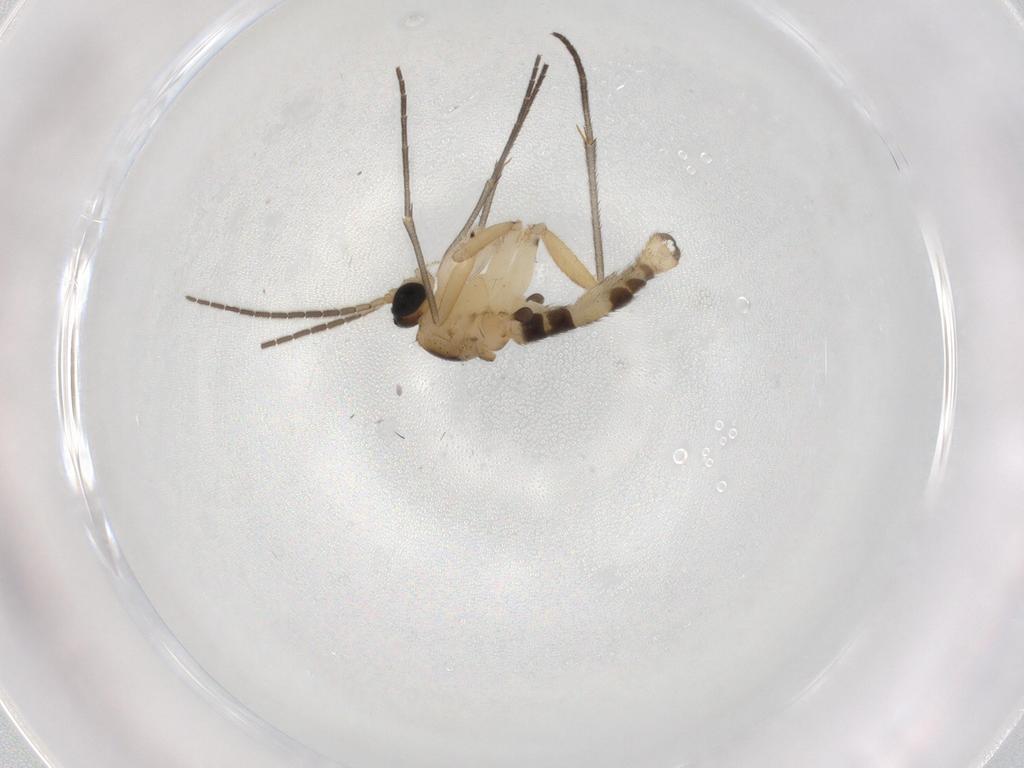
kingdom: Animalia
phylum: Arthropoda
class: Insecta
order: Diptera
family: Sciaridae
